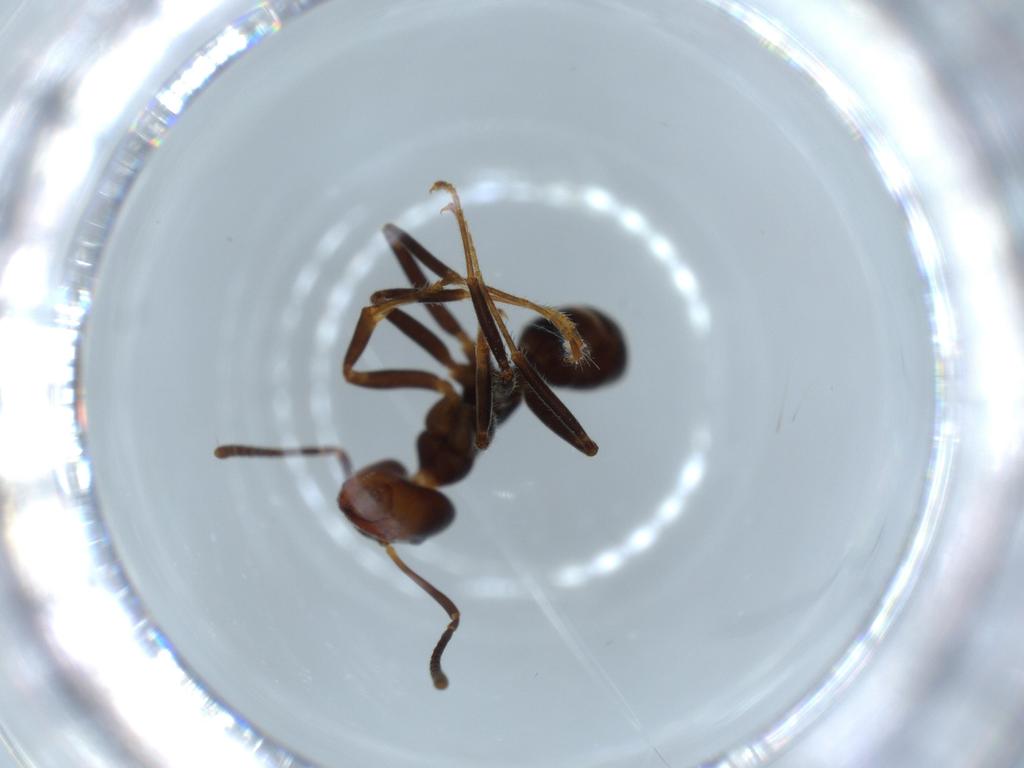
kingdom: Animalia
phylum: Arthropoda
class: Insecta
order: Hymenoptera
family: Formicidae
